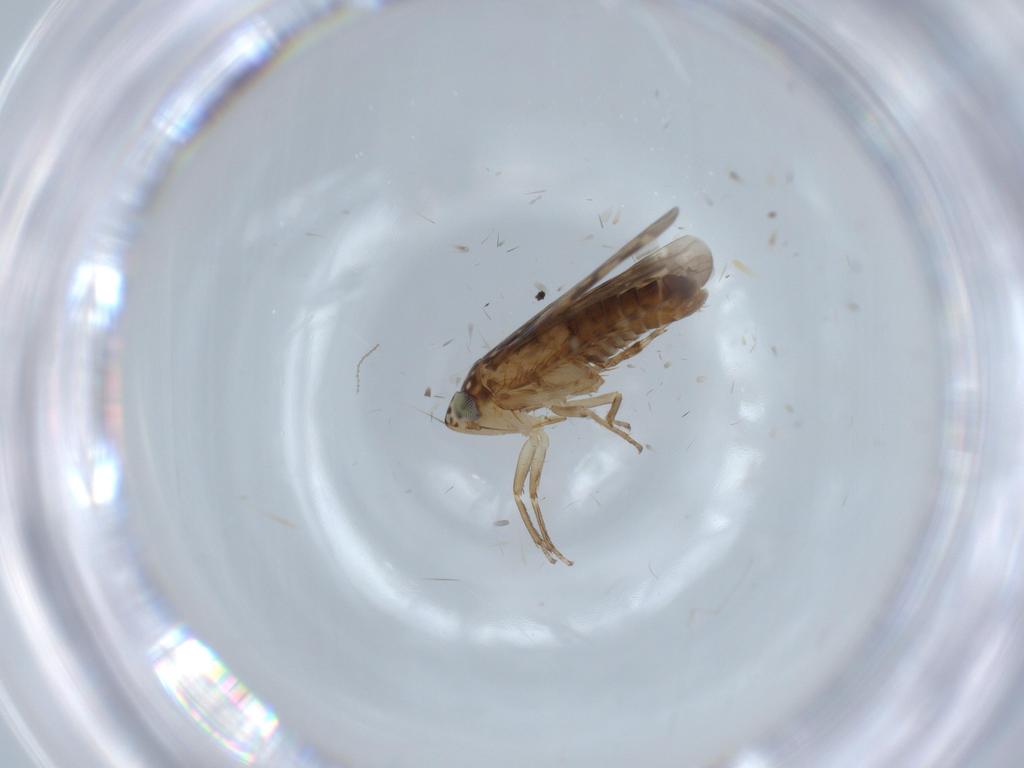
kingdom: Animalia
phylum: Arthropoda
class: Insecta
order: Hemiptera
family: Cicadellidae
